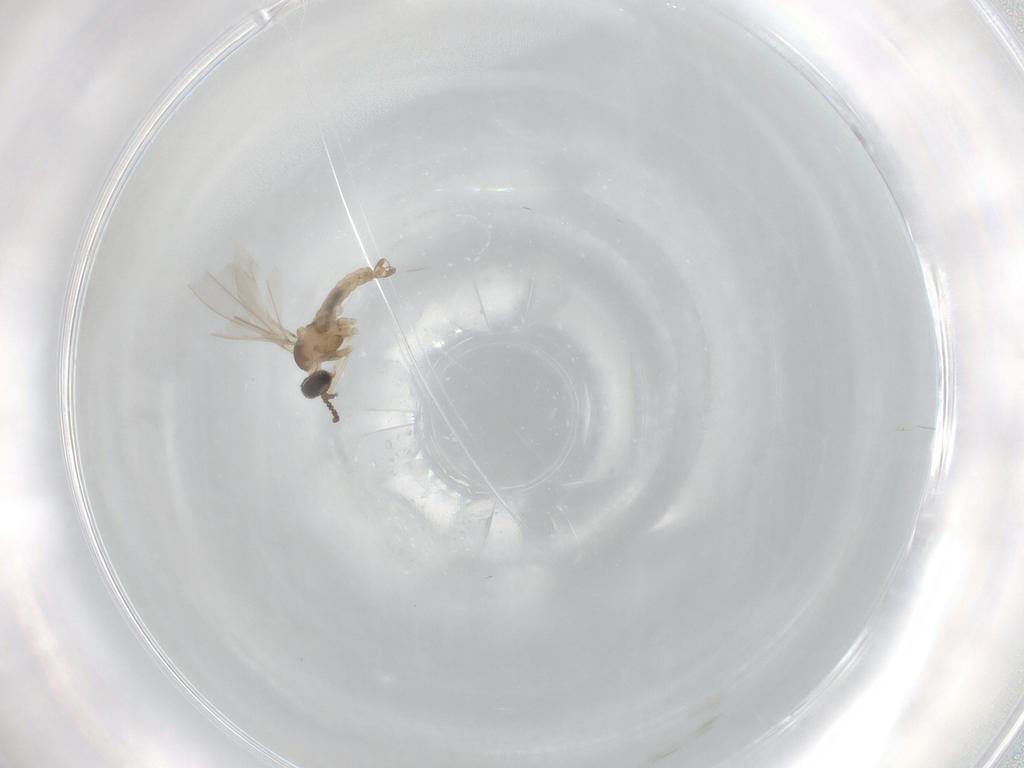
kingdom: Animalia
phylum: Arthropoda
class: Insecta
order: Diptera
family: Cecidomyiidae
